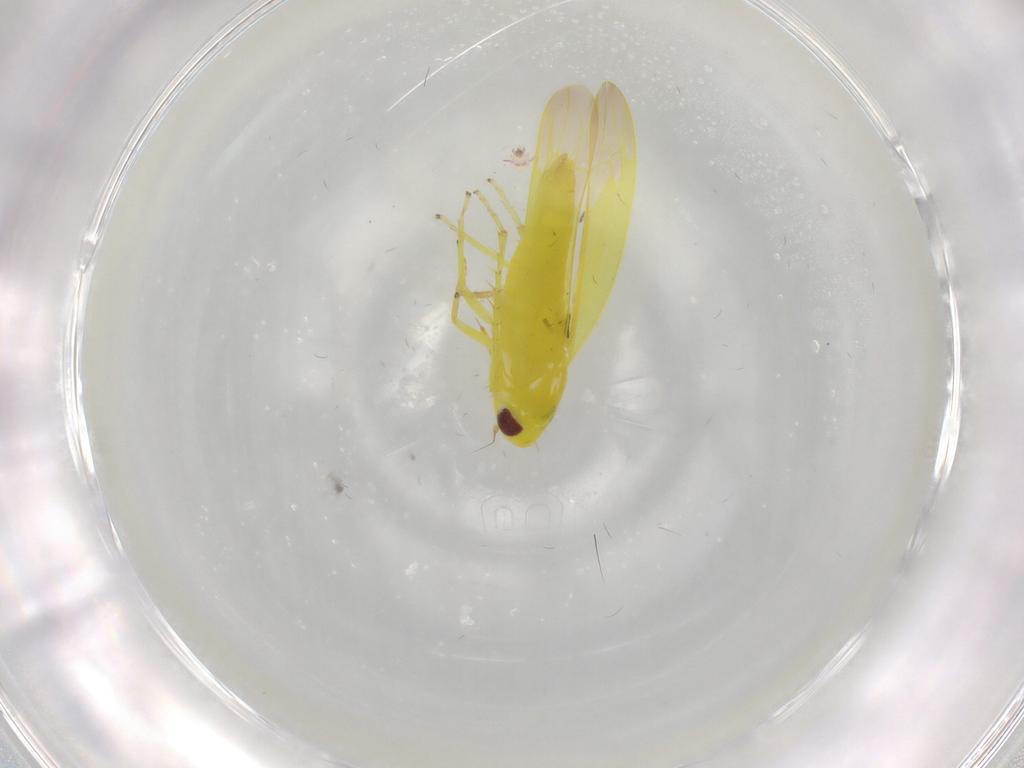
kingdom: Animalia
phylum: Arthropoda
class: Insecta
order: Hemiptera
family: Cicadellidae
